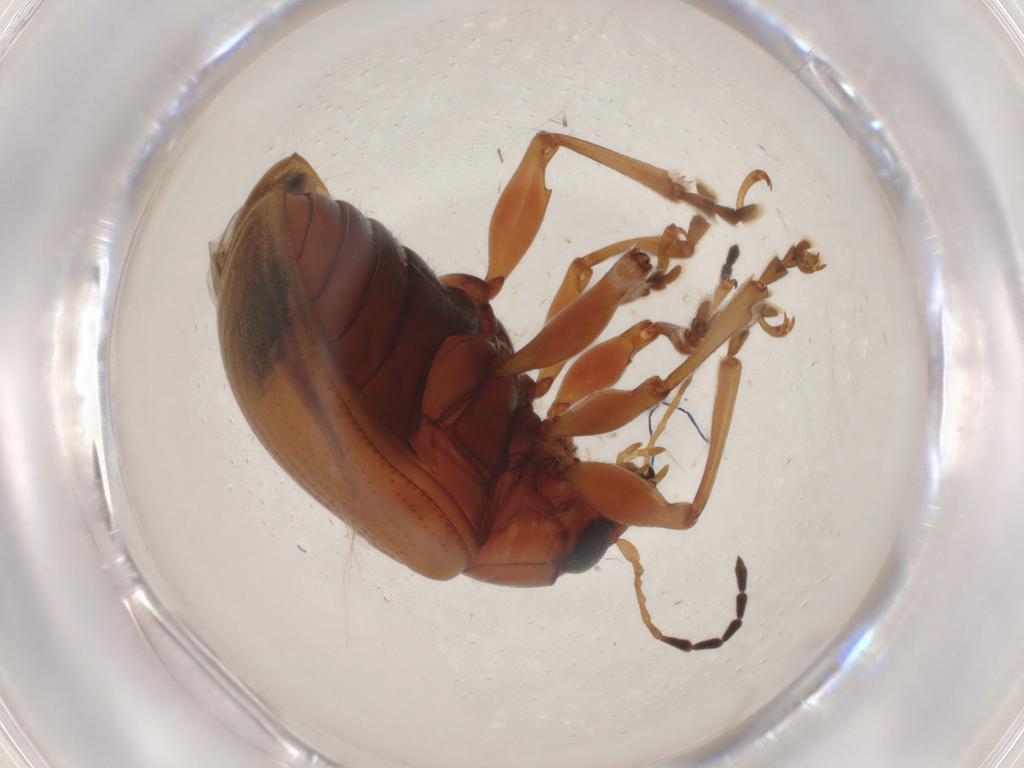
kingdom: Animalia
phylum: Arthropoda
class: Insecta
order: Coleoptera
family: Chrysomelidae
